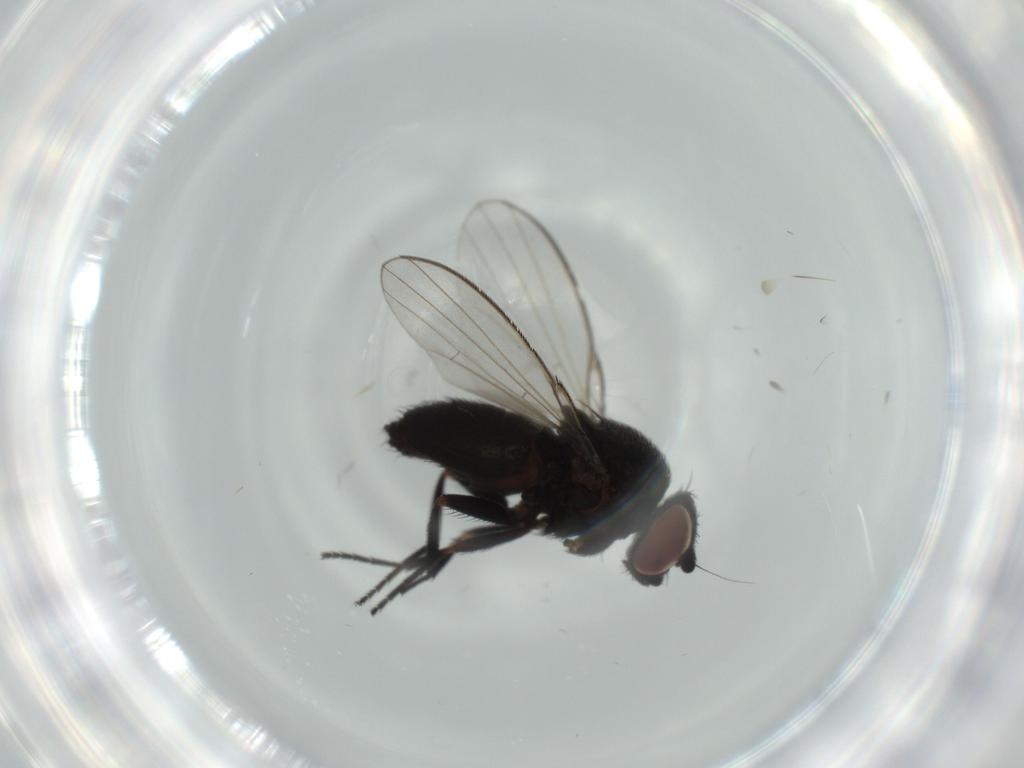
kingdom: Animalia
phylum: Arthropoda
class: Insecta
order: Diptera
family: Milichiidae
